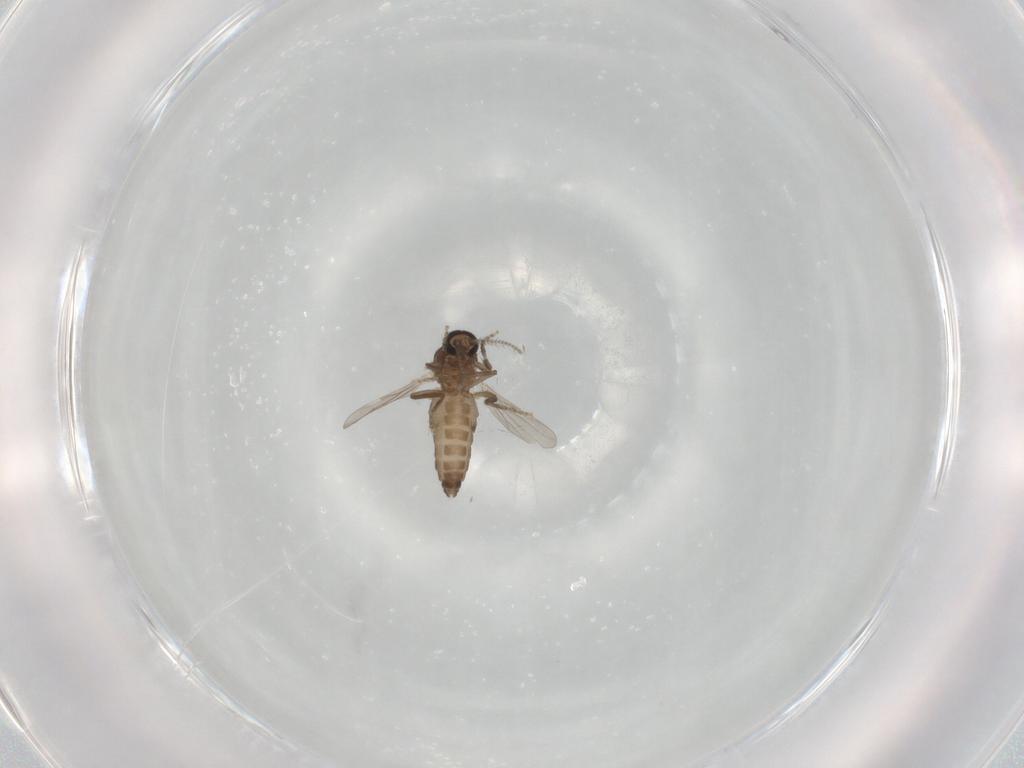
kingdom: Animalia
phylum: Arthropoda
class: Insecta
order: Diptera
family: Ceratopogonidae
